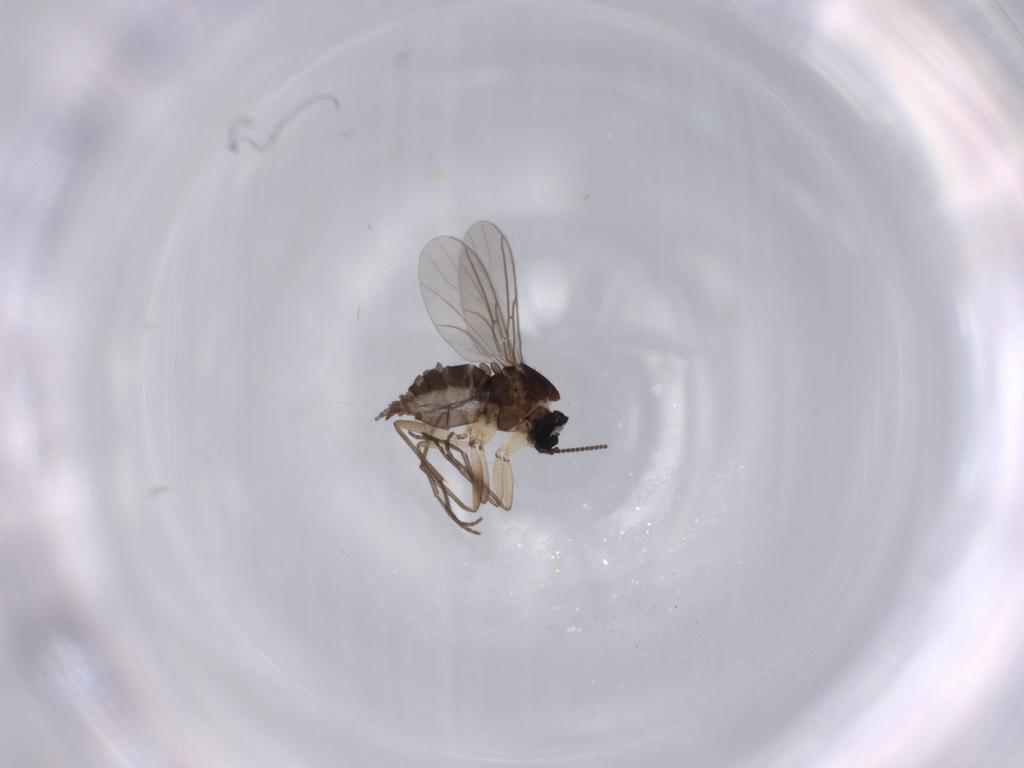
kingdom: Animalia
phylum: Arthropoda
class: Insecta
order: Diptera
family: Sciaridae
